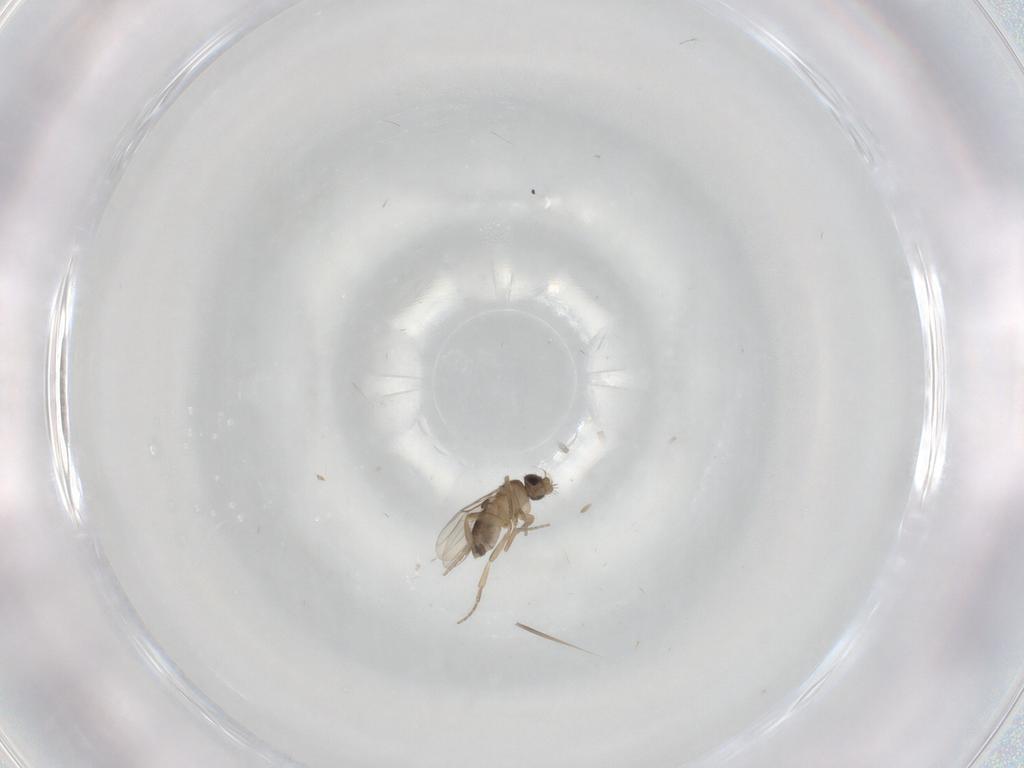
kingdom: Animalia
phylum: Arthropoda
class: Insecta
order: Diptera
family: Phoridae
